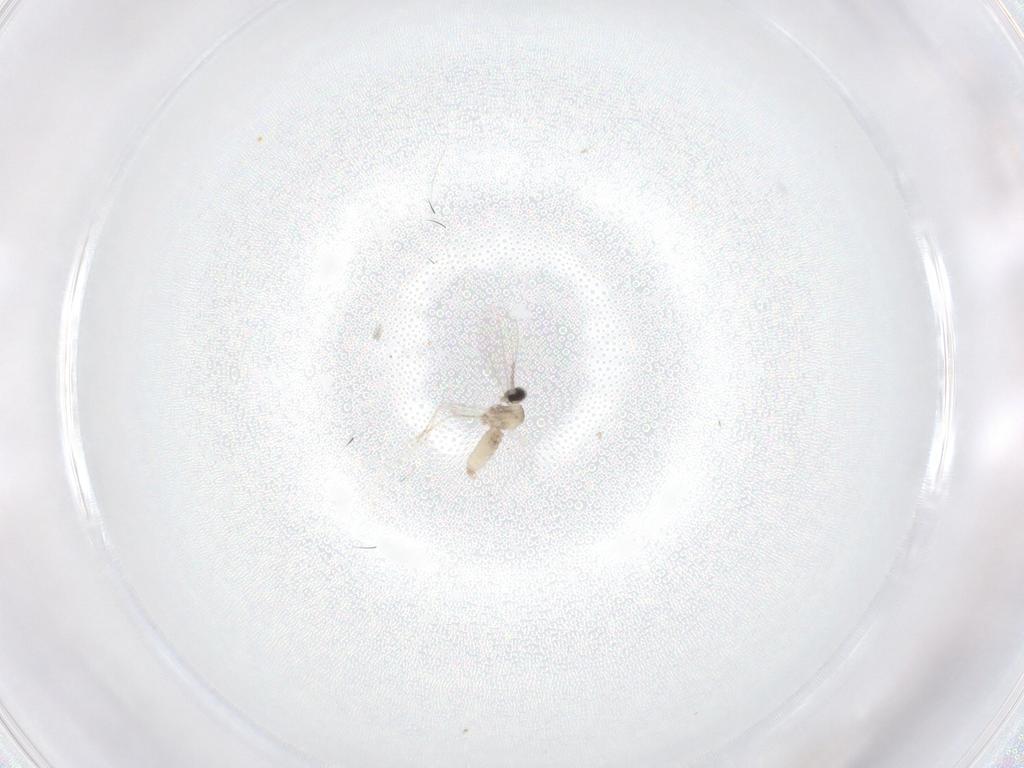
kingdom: Animalia
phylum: Arthropoda
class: Insecta
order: Diptera
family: Cecidomyiidae
